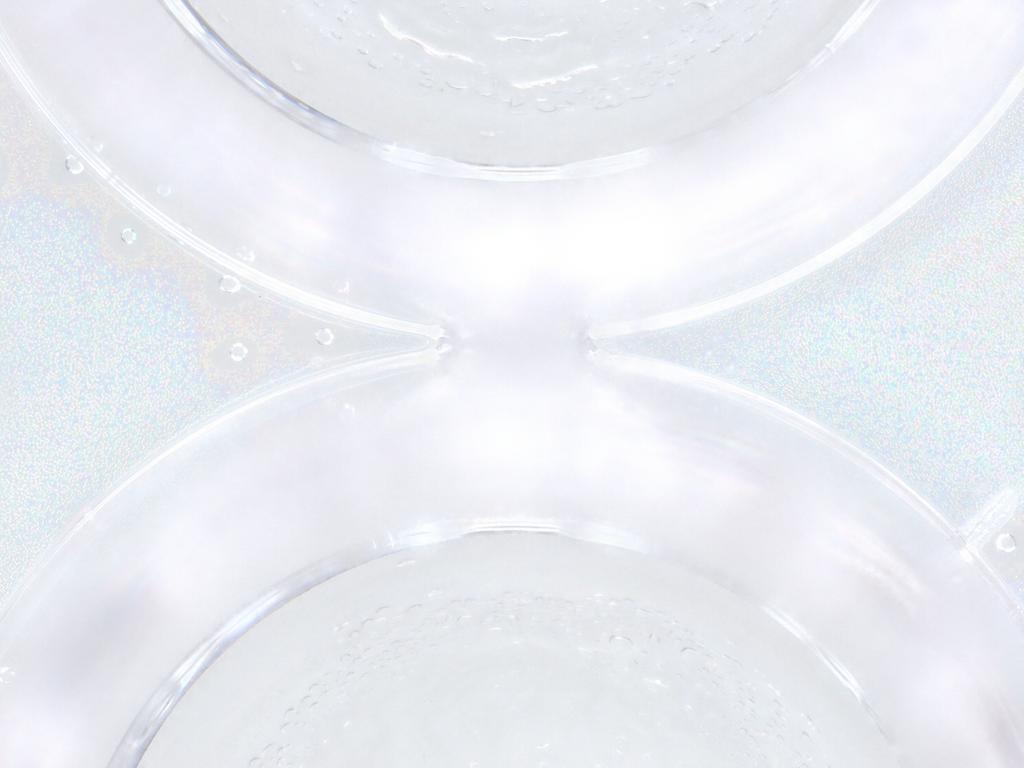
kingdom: Animalia
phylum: Arthropoda
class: Insecta
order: Diptera
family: Psychodidae
